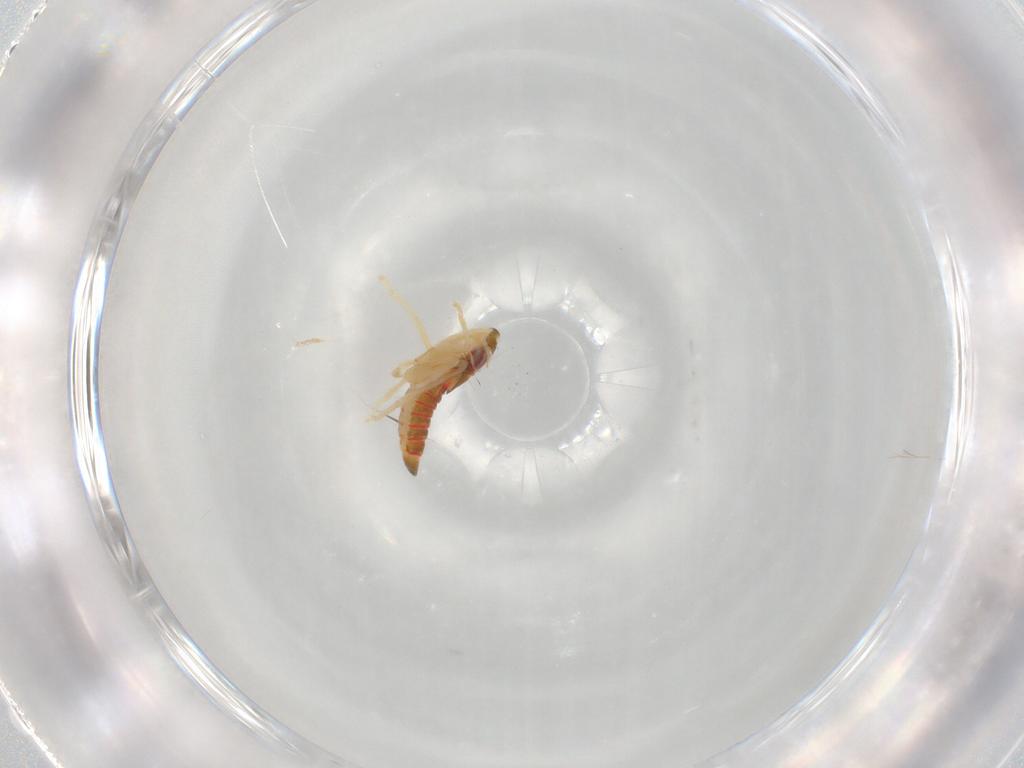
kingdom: Animalia
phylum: Arthropoda
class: Insecta
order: Hemiptera
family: Cicadellidae
